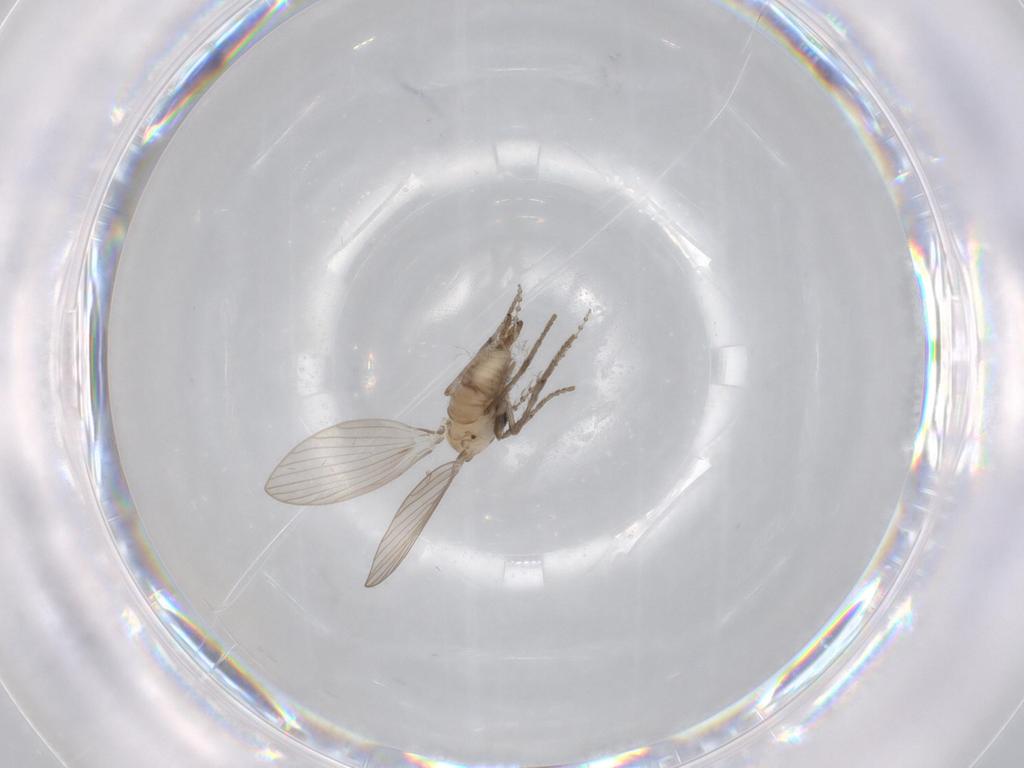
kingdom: Animalia
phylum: Arthropoda
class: Insecta
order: Diptera
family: Psychodidae
